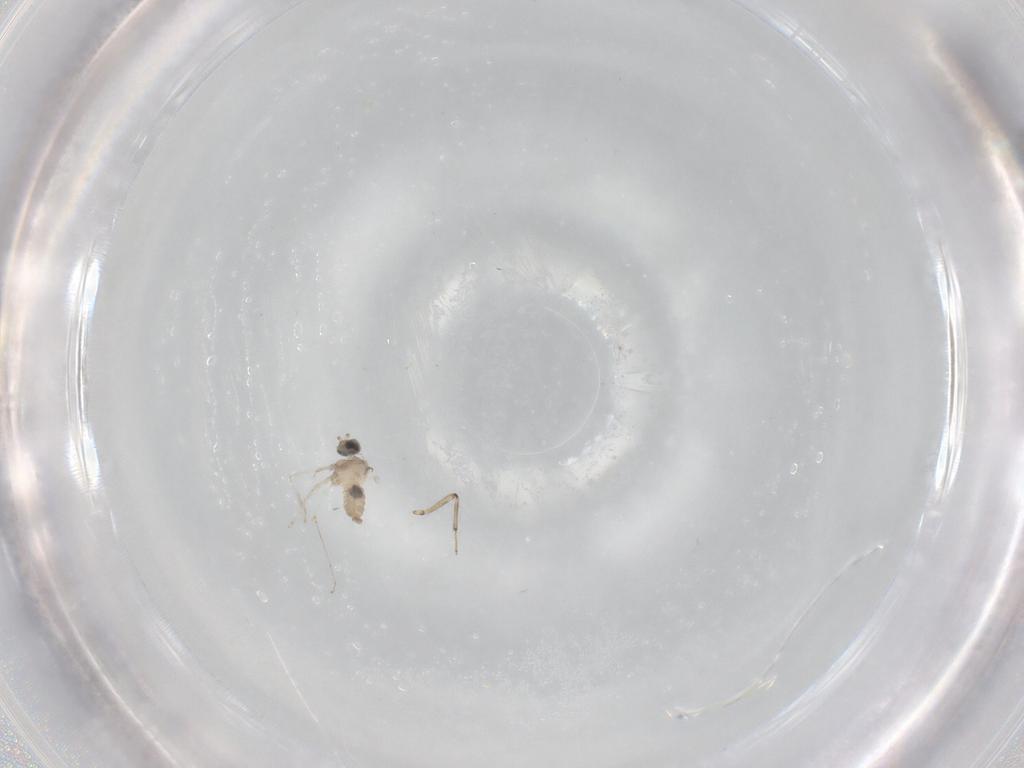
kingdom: Animalia
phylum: Arthropoda
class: Insecta
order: Diptera
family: Cecidomyiidae
